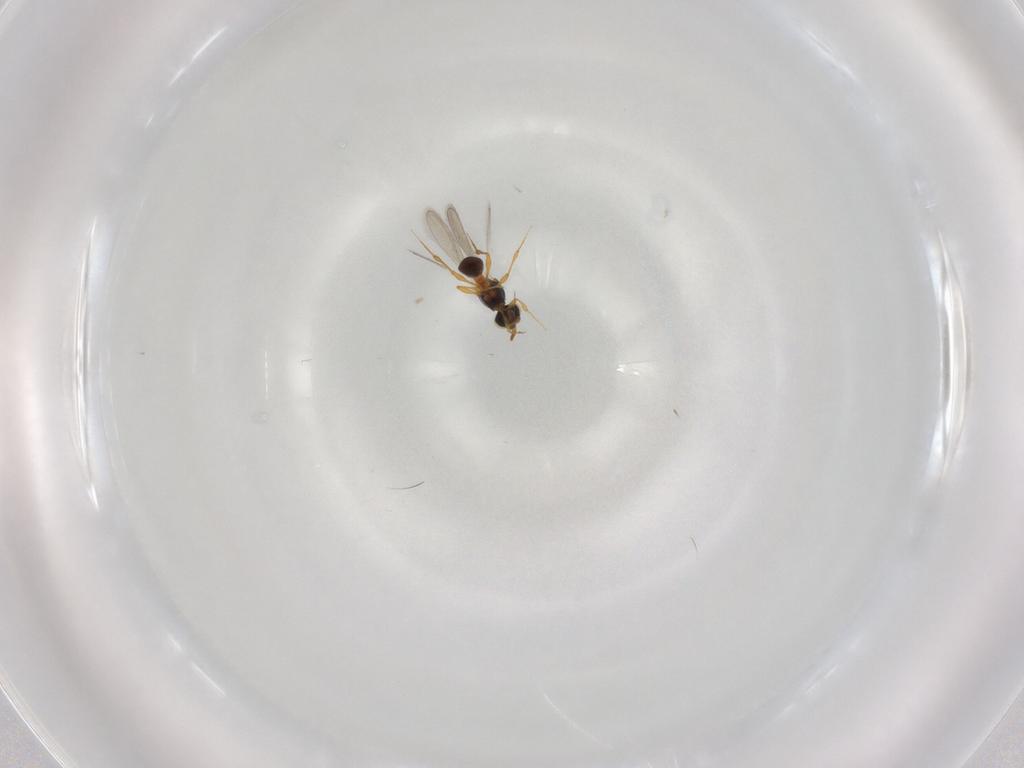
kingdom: Animalia
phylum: Arthropoda
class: Insecta
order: Hymenoptera
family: Platygastridae
